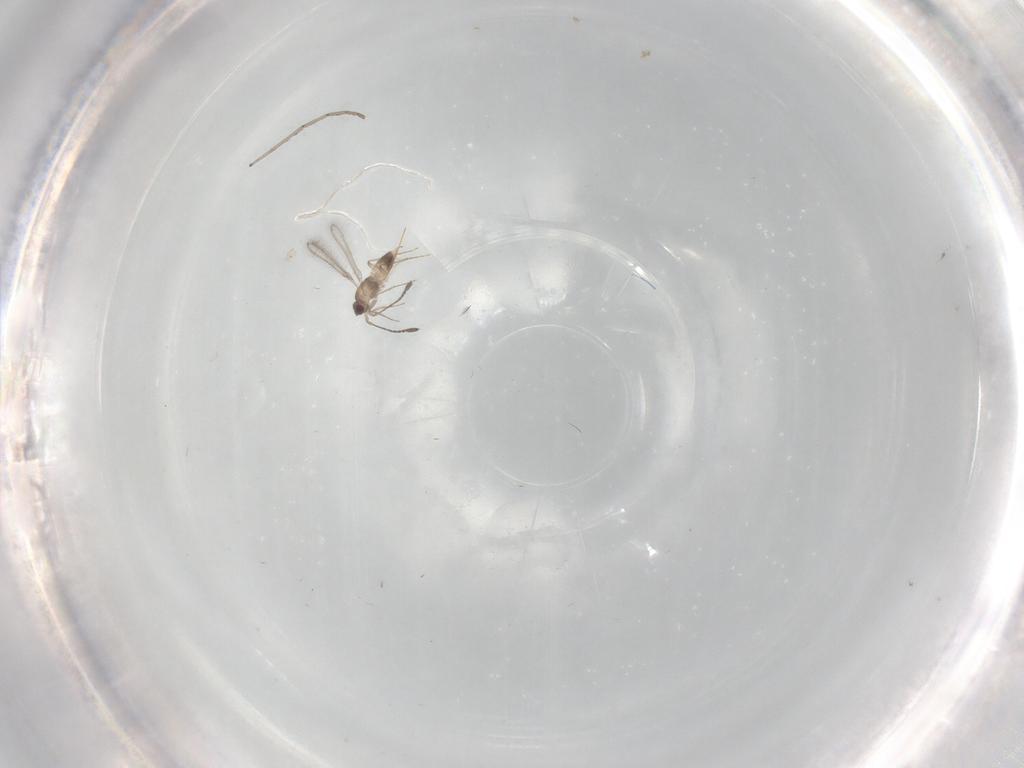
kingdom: Animalia
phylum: Arthropoda
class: Insecta
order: Hymenoptera
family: Mymaridae
